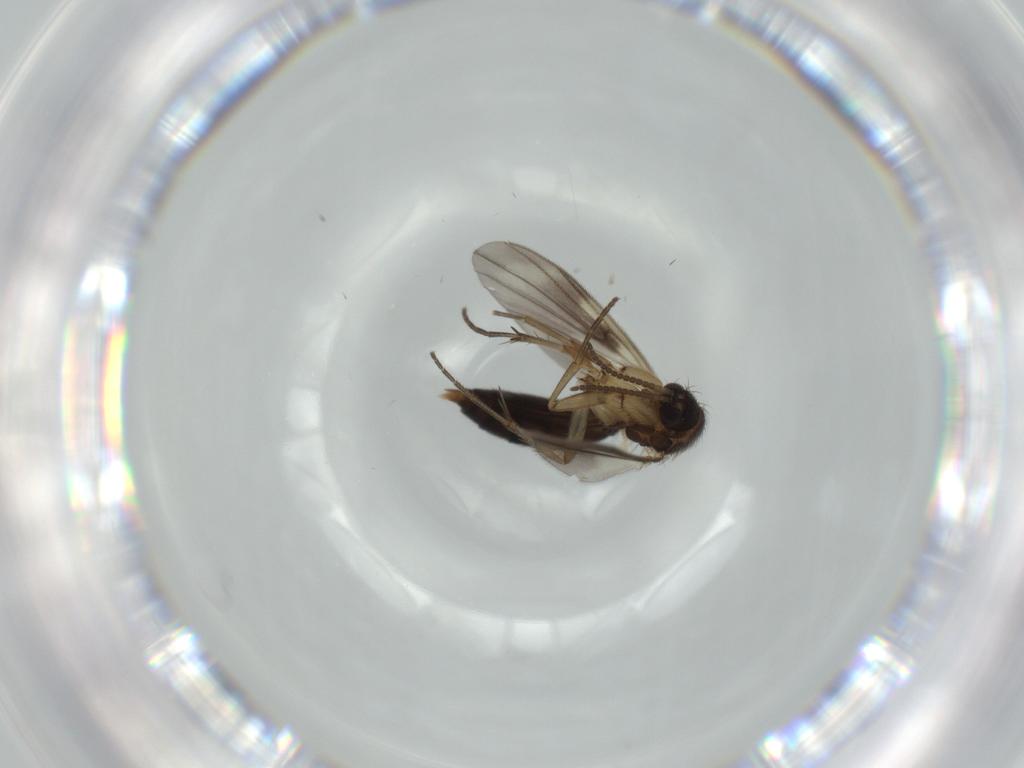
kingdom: Animalia
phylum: Arthropoda
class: Insecta
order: Diptera
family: Mycetophilidae
